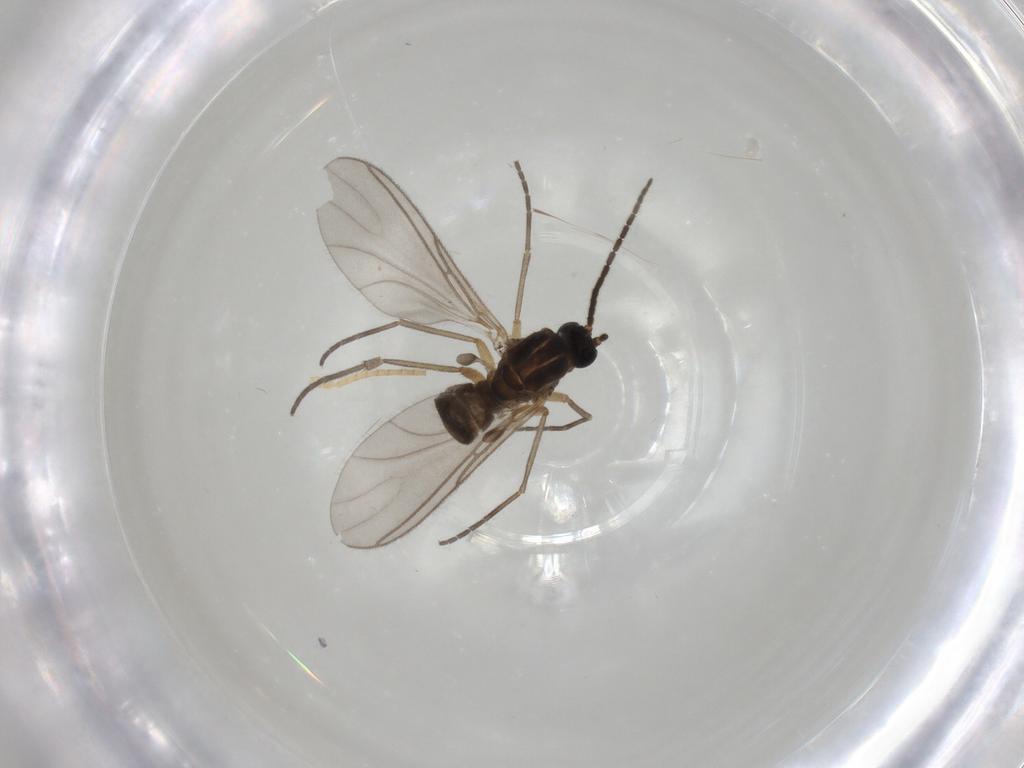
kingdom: Animalia
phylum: Arthropoda
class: Insecta
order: Diptera
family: Sciaridae
